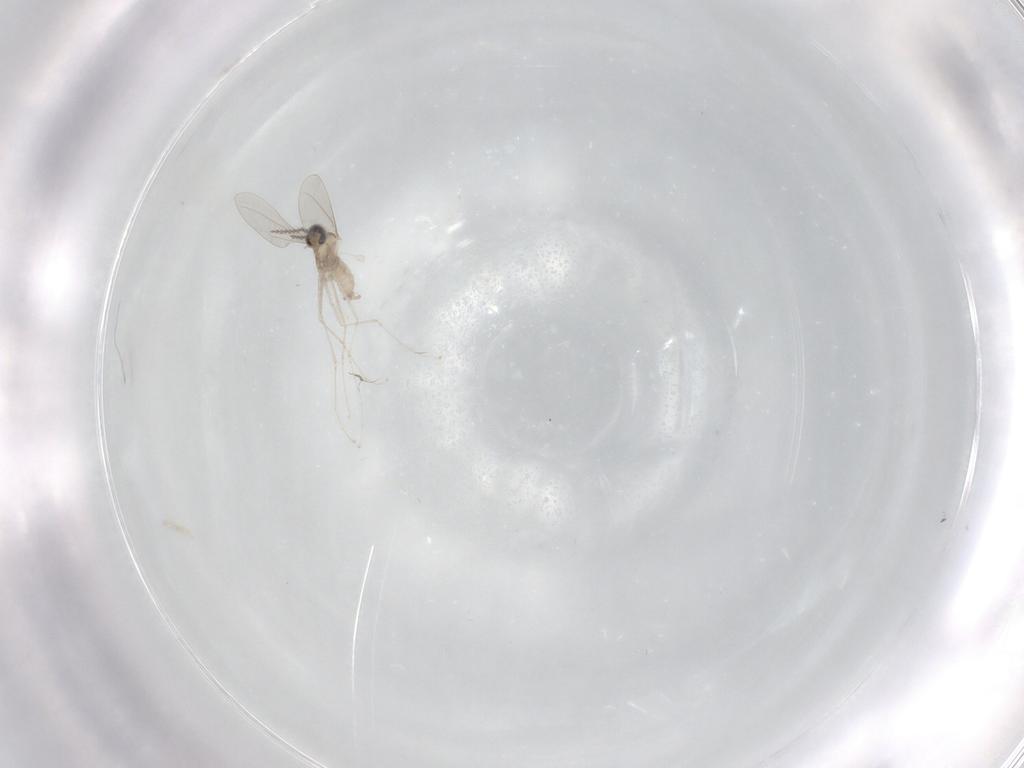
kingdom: Animalia
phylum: Arthropoda
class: Insecta
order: Diptera
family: Cecidomyiidae
